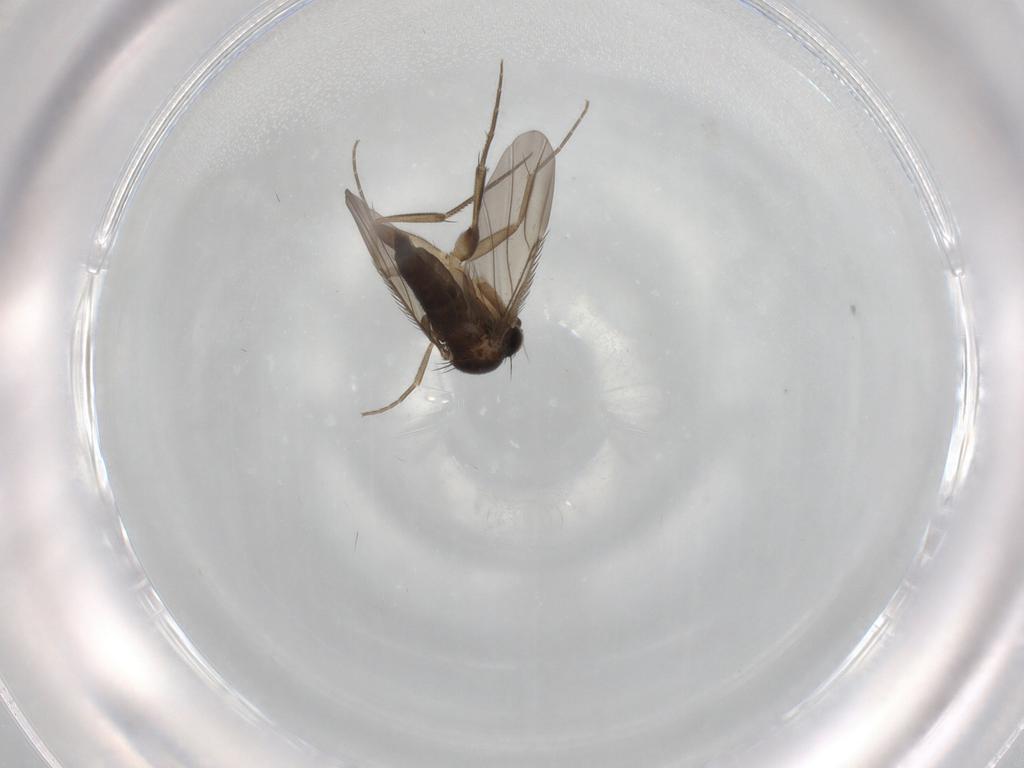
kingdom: Animalia
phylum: Arthropoda
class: Insecta
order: Diptera
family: Phoridae
